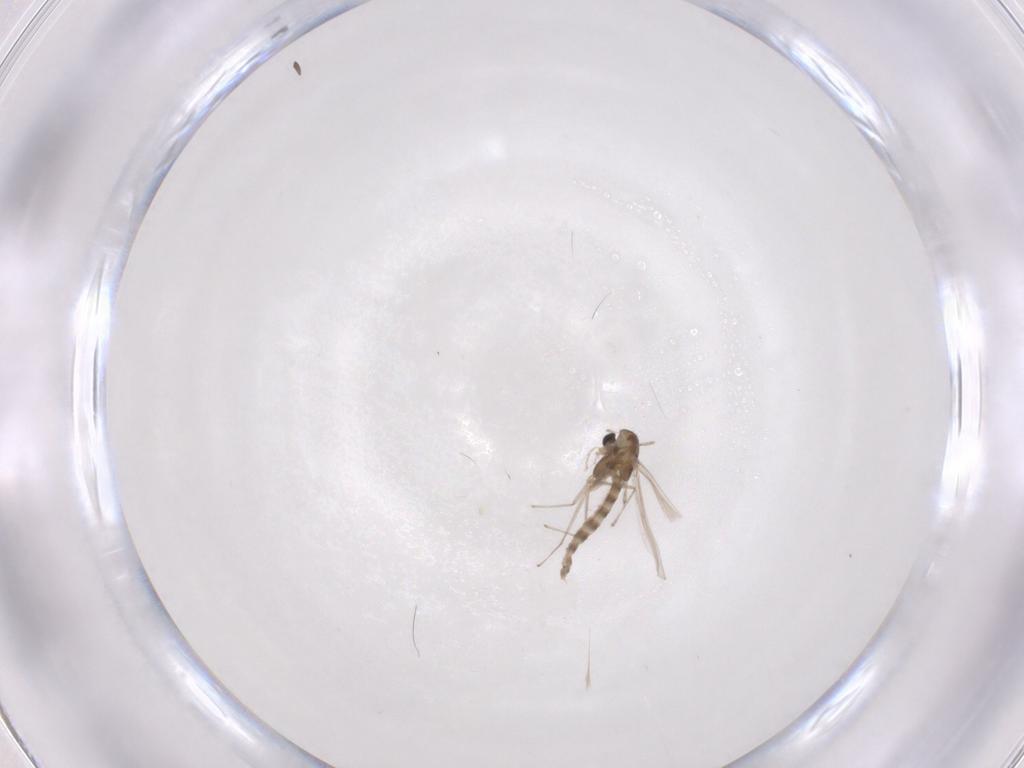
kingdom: Animalia
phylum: Arthropoda
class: Insecta
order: Diptera
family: Chironomidae
